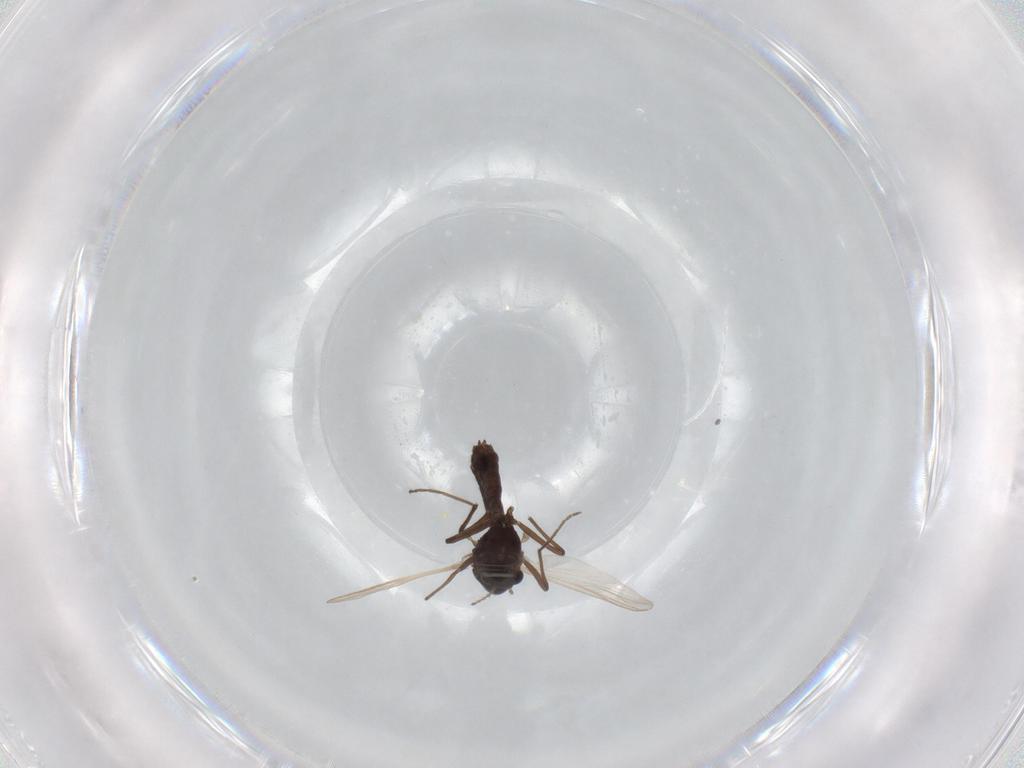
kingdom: Animalia
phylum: Arthropoda
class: Insecta
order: Diptera
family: Chironomidae
